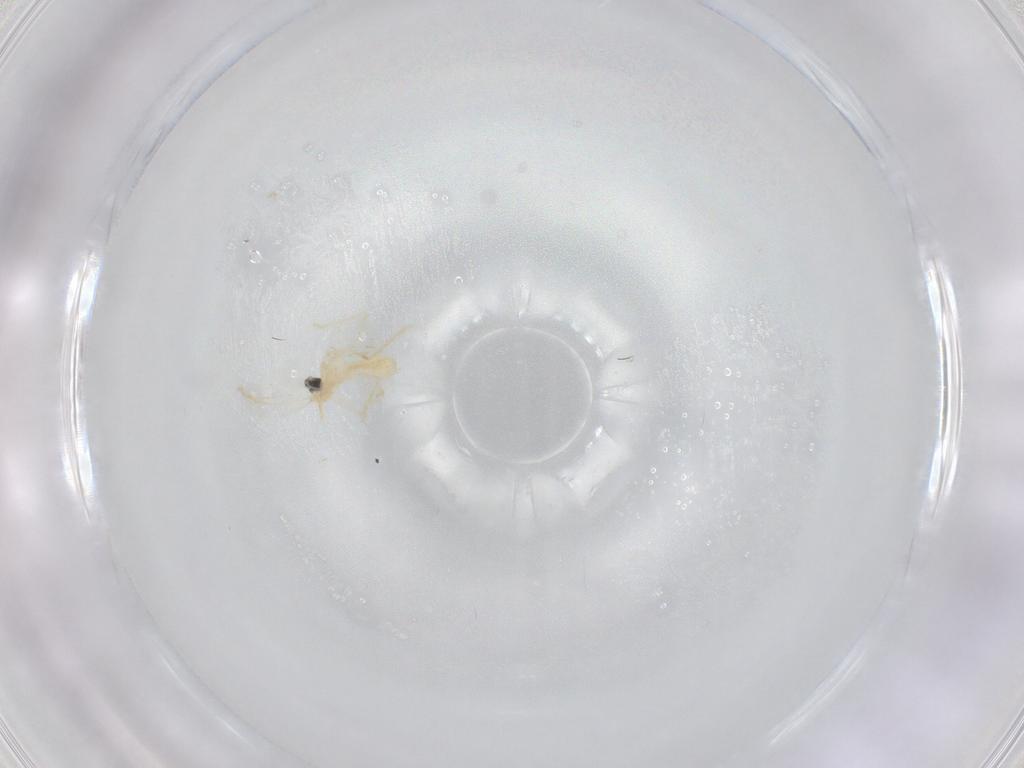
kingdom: Animalia
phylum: Arthropoda
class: Insecta
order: Diptera
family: Cecidomyiidae
